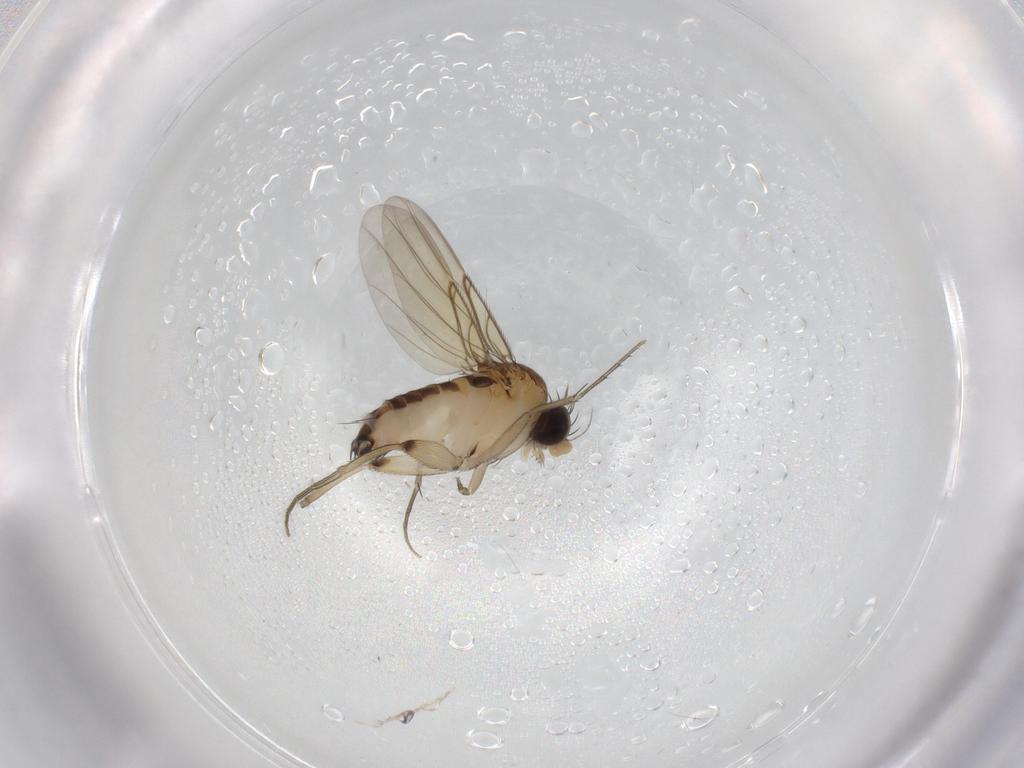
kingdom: Animalia
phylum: Arthropoda
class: Insecta
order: Diptera
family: Phoridae
